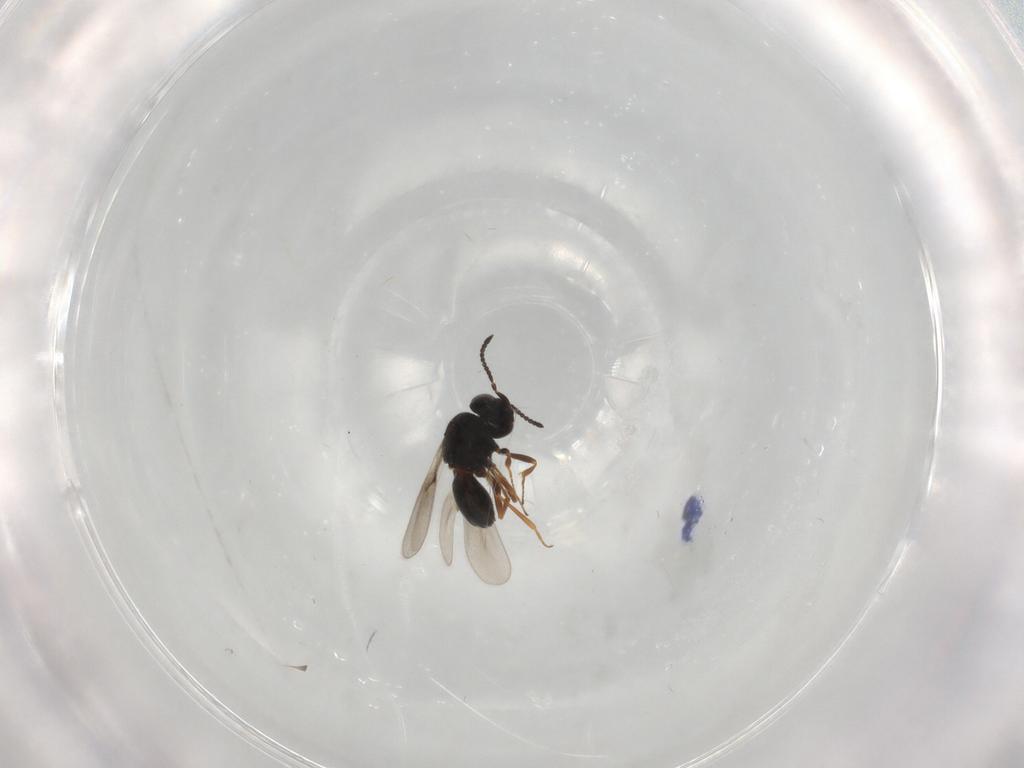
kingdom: Animalia
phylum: Arthropoda
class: Insecta
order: Hymenoptera
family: Scelionidae
